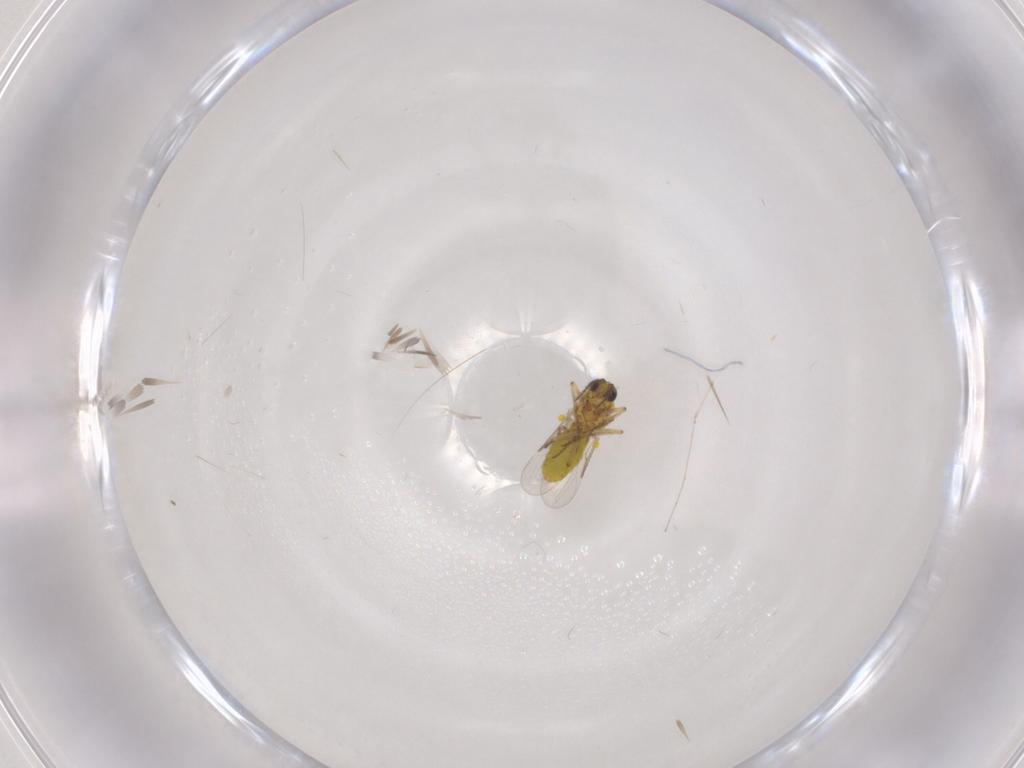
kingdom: Animalia
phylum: Arthropoda
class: Insecta
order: Diptera
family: Cecidomyiidae
